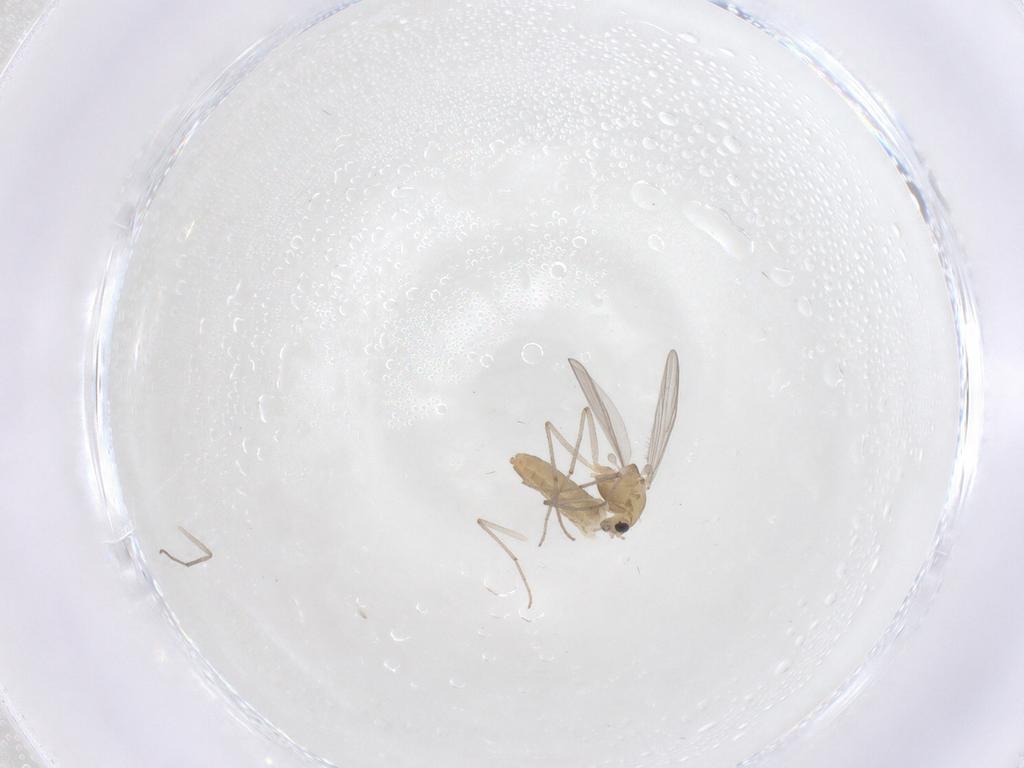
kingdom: Animalia
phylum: Arthropoda
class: Insecta
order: Diptera
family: Chironomidae
